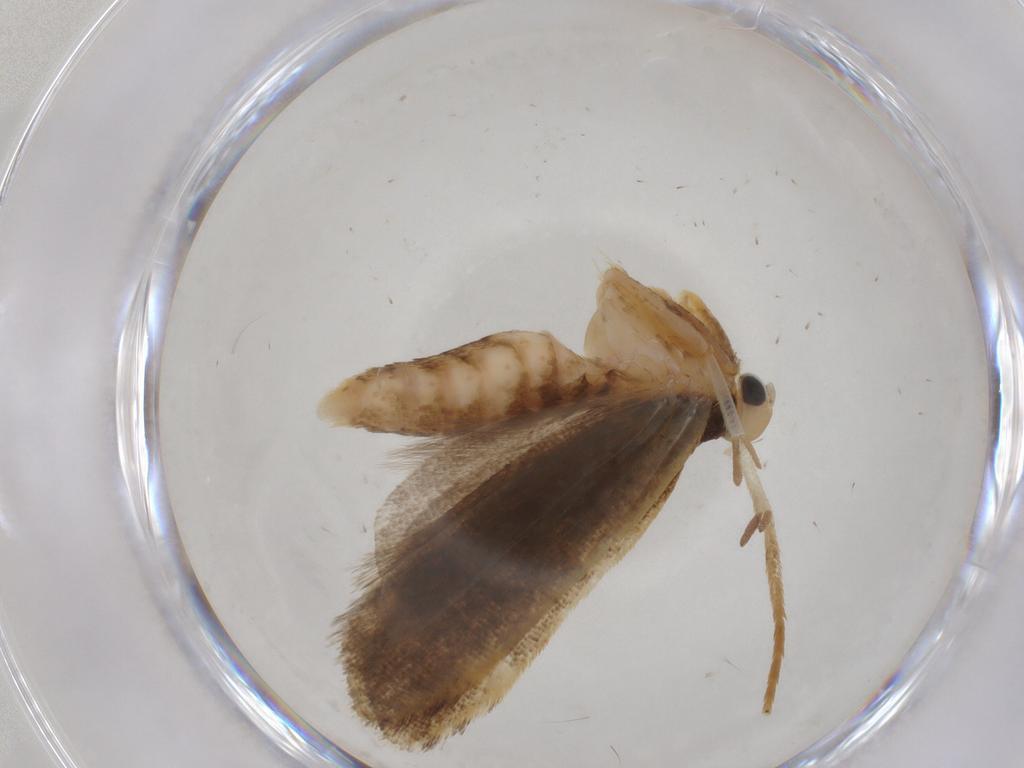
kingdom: Animalia
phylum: Arthropoda
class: Insecta
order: Lepidoptera
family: Gelechiidae
